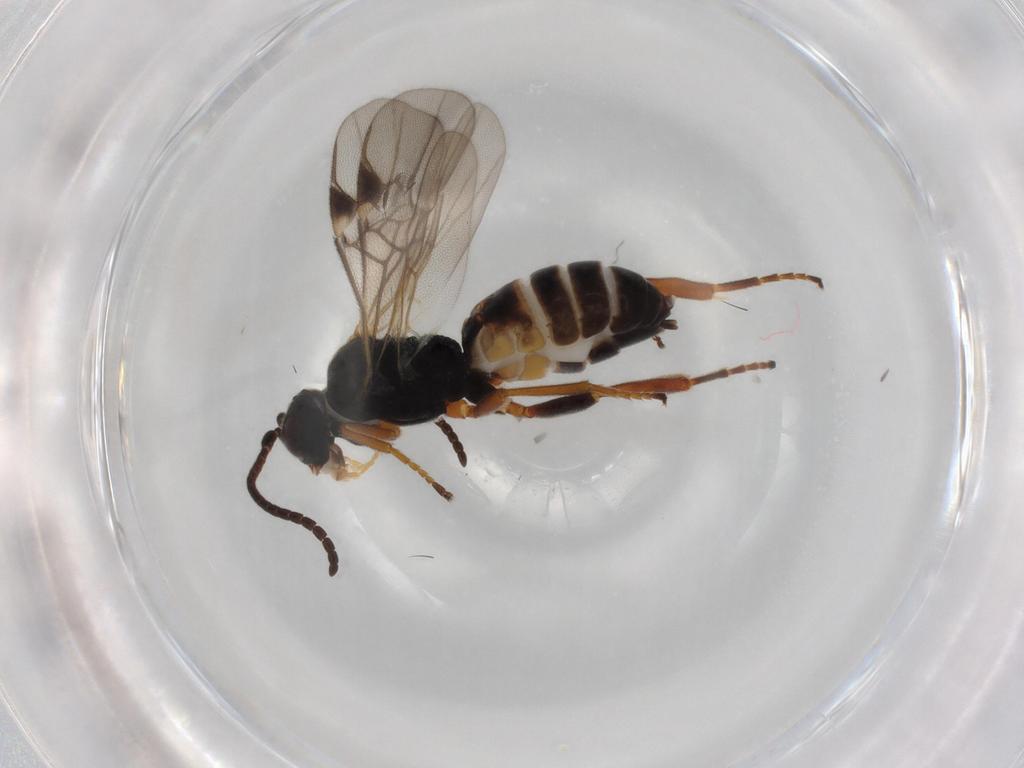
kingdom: Animalia
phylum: Arthropoda
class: Insecta
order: Hymenoptera
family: Braconidae
